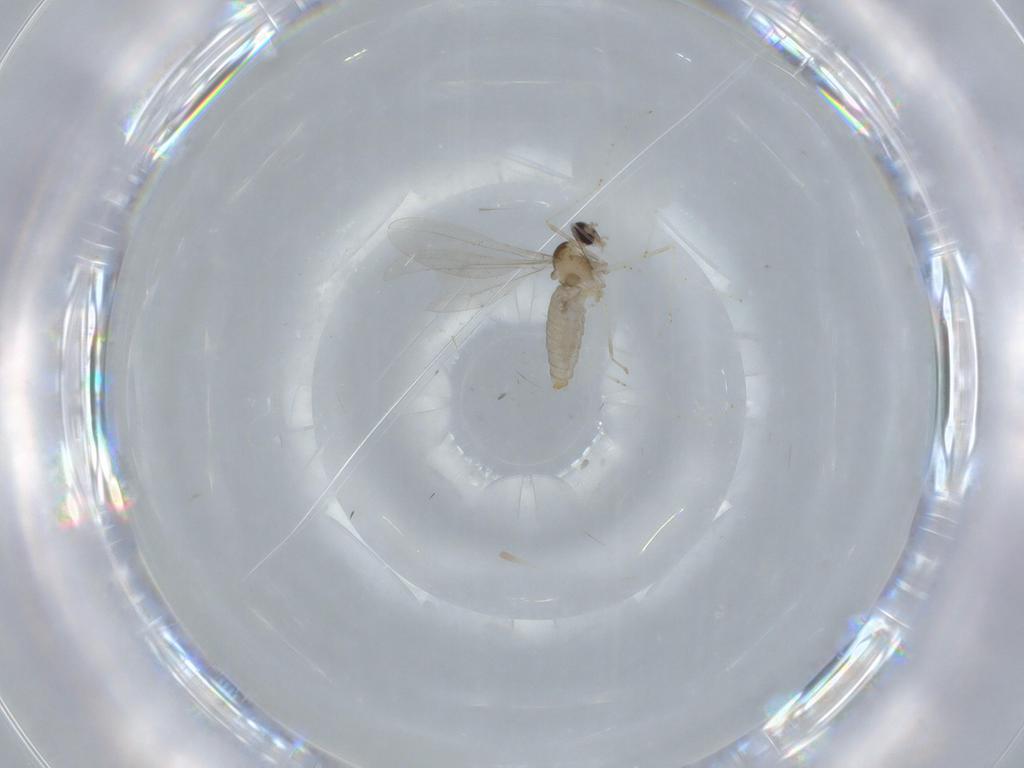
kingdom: Animalia
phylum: Arthropoda
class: Insecta
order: Diptera
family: Cecidomyiidae
